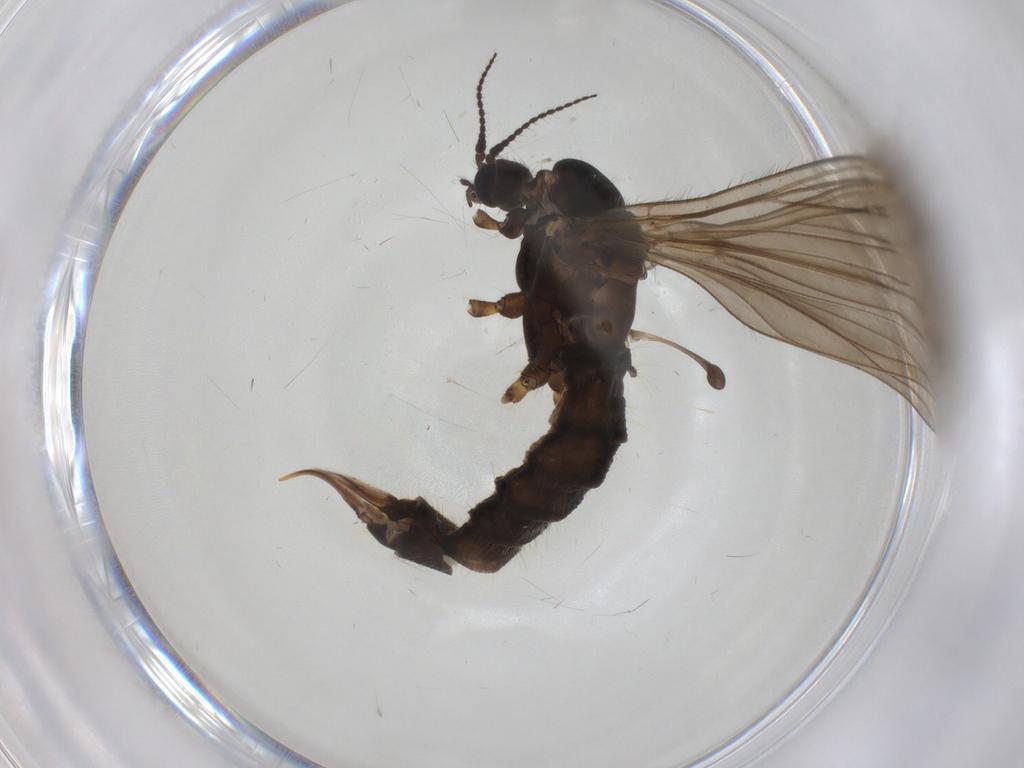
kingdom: Animalia
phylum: Arthropoda
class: Insecta
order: Diptera
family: Limoniidae
